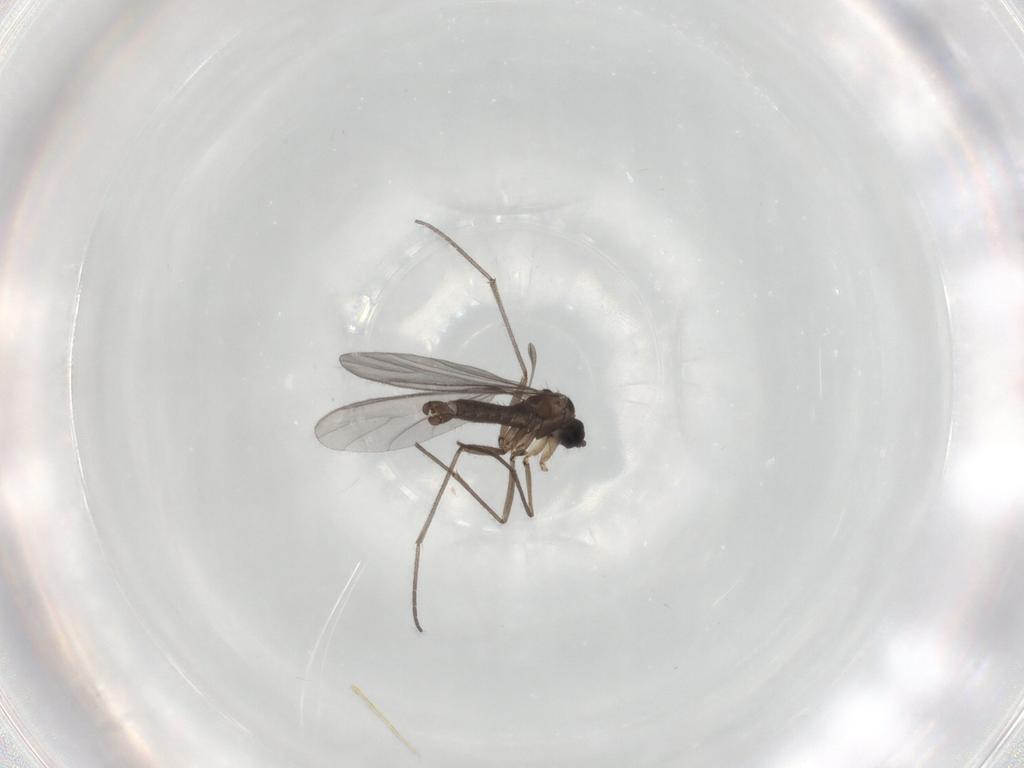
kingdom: Animalia
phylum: Arthropoda
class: Insecta
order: Diptera
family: Sciaridae
